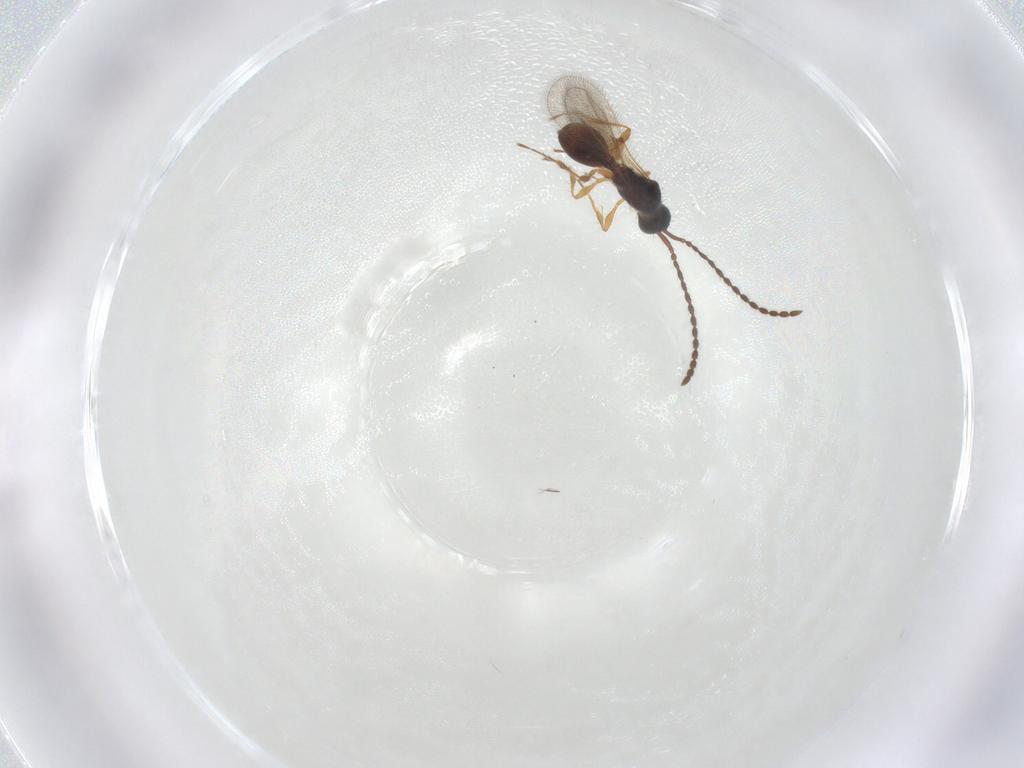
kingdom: Animalia
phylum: Arthropoda
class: Insecta
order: Hymenoptera
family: Diapriidae
